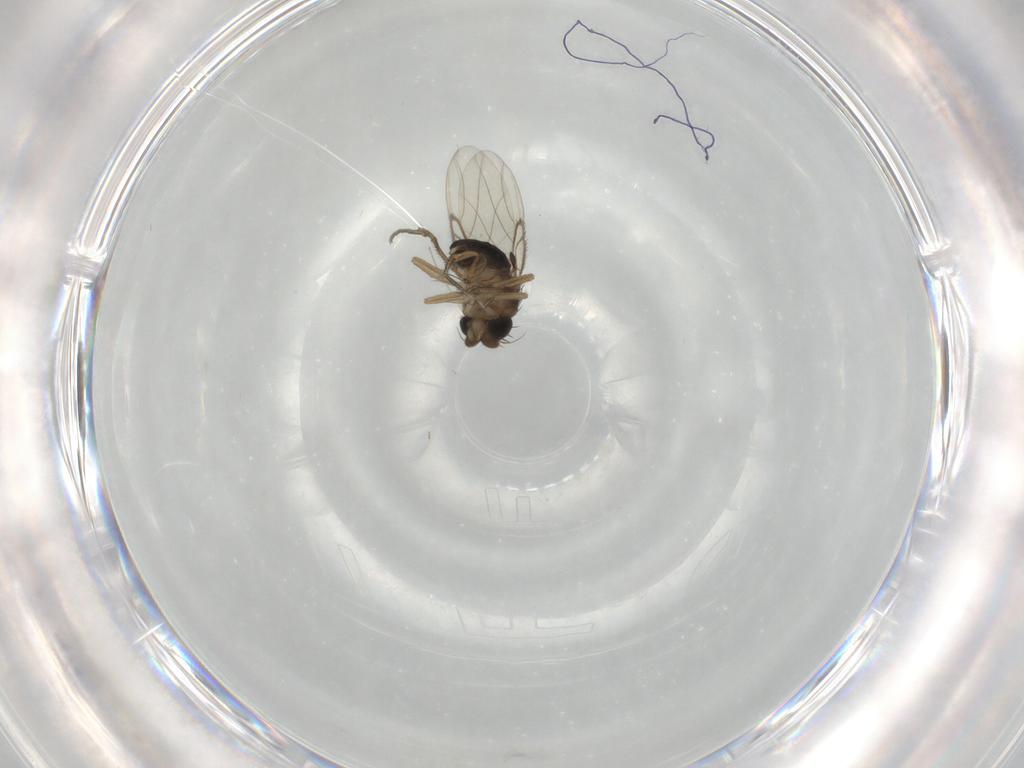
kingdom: Animalia
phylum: Arthropoda
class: Insecta
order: Diptera
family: Phoridae
